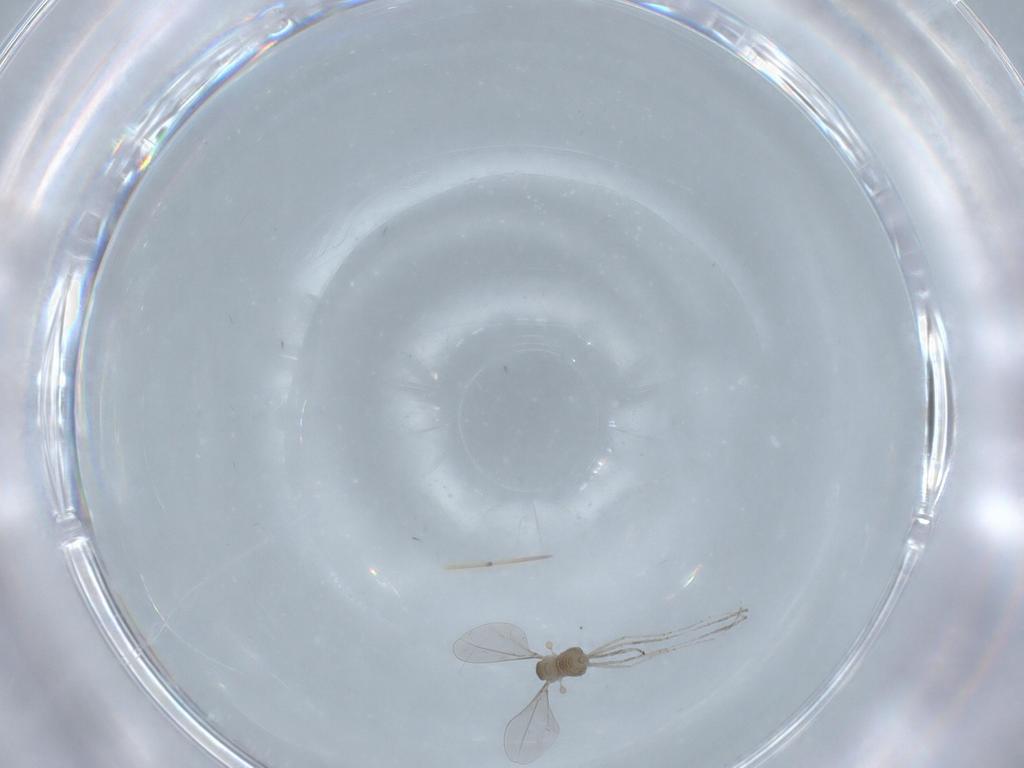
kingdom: Animalia
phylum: Arthropoda
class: Insecta
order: Diptera
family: Cecidomyiidae
